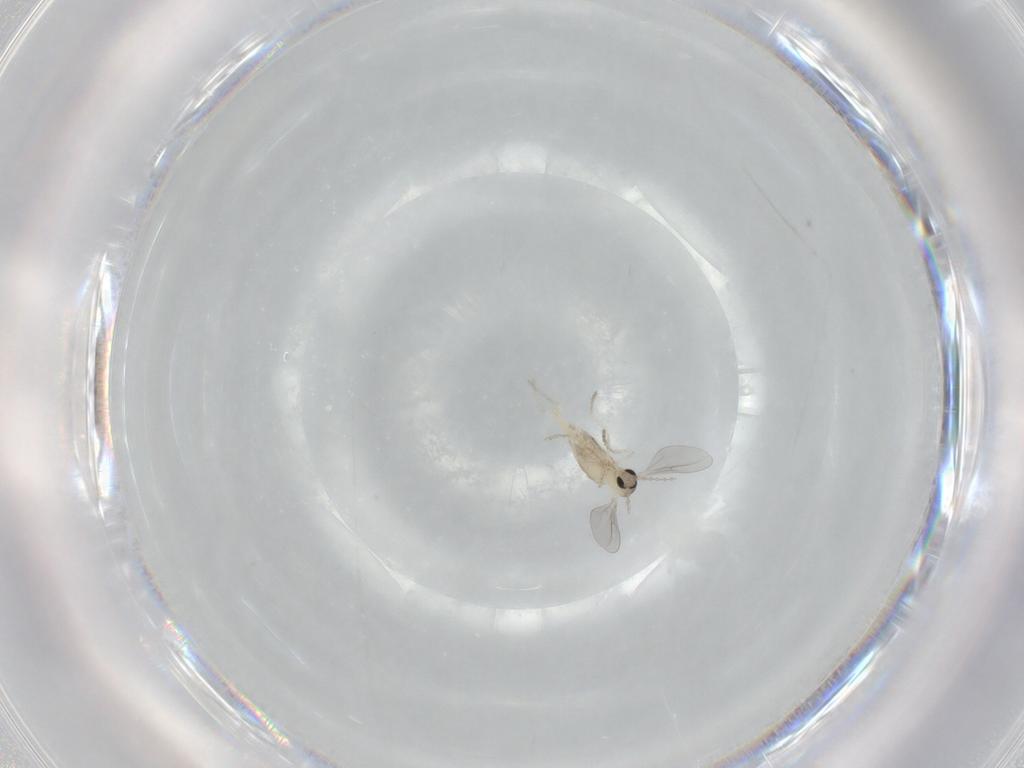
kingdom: Animalia
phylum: Arthropoda
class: Insecta
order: Diptera
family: Cecidomyiidae
